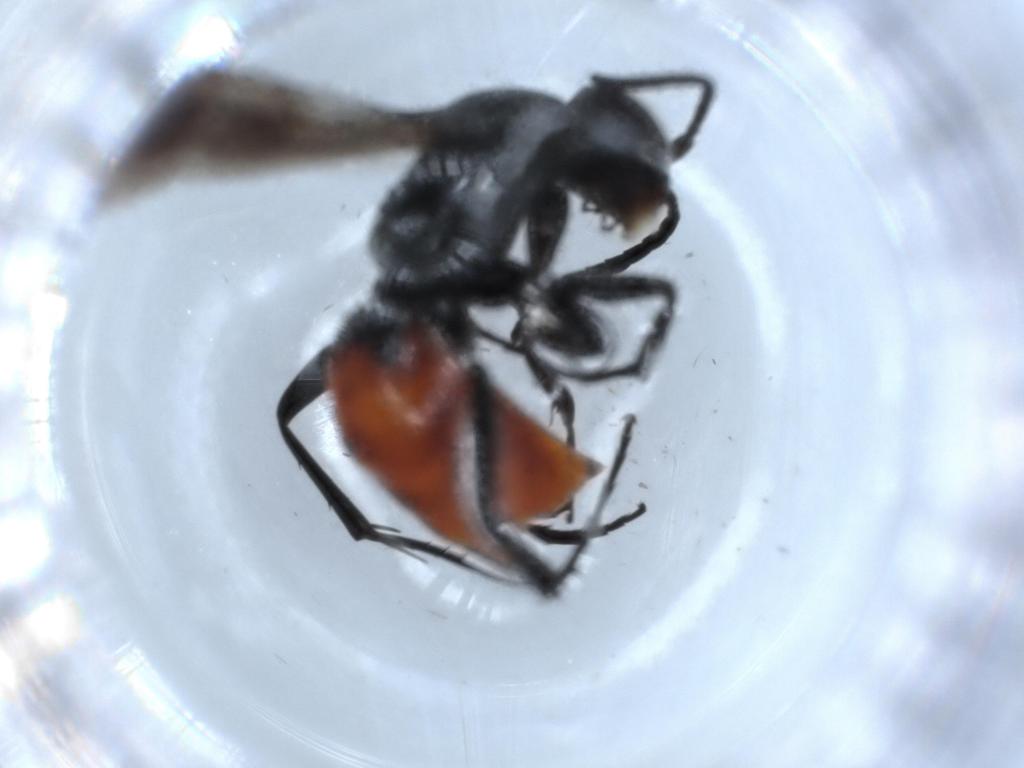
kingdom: Animalia
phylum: Arthropoda
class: Insecta
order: Hymenoptera
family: Pompilidae
